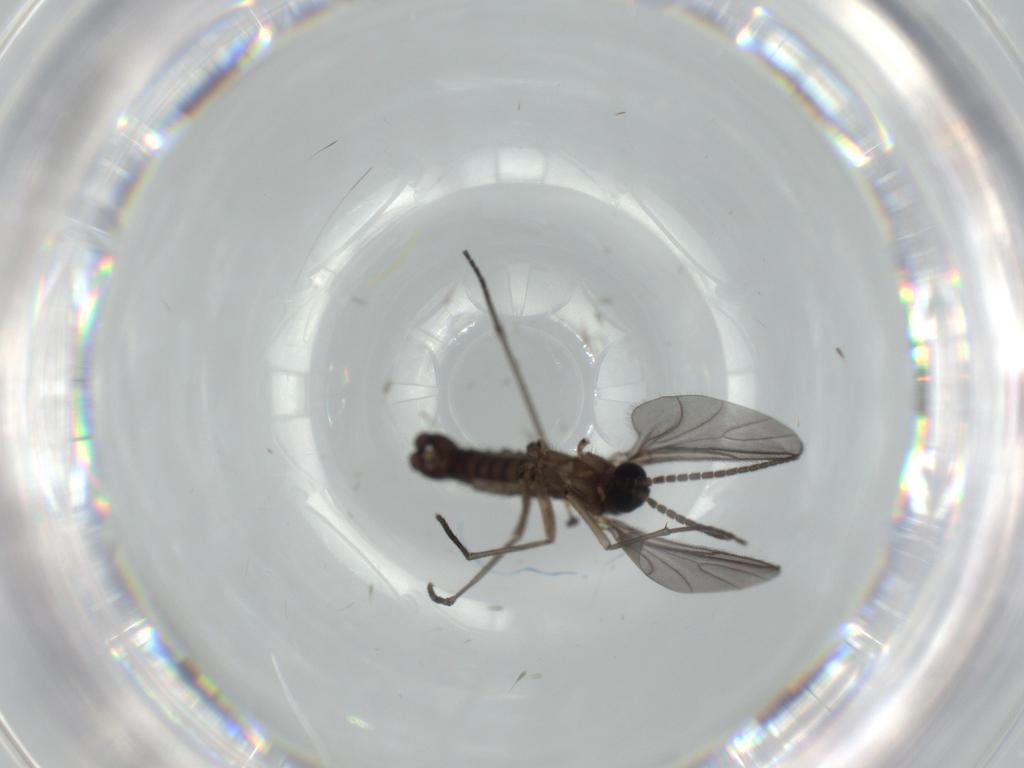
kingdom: Animalia
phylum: Arthropoda
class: Insecta
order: Diptera
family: Sciaridae
